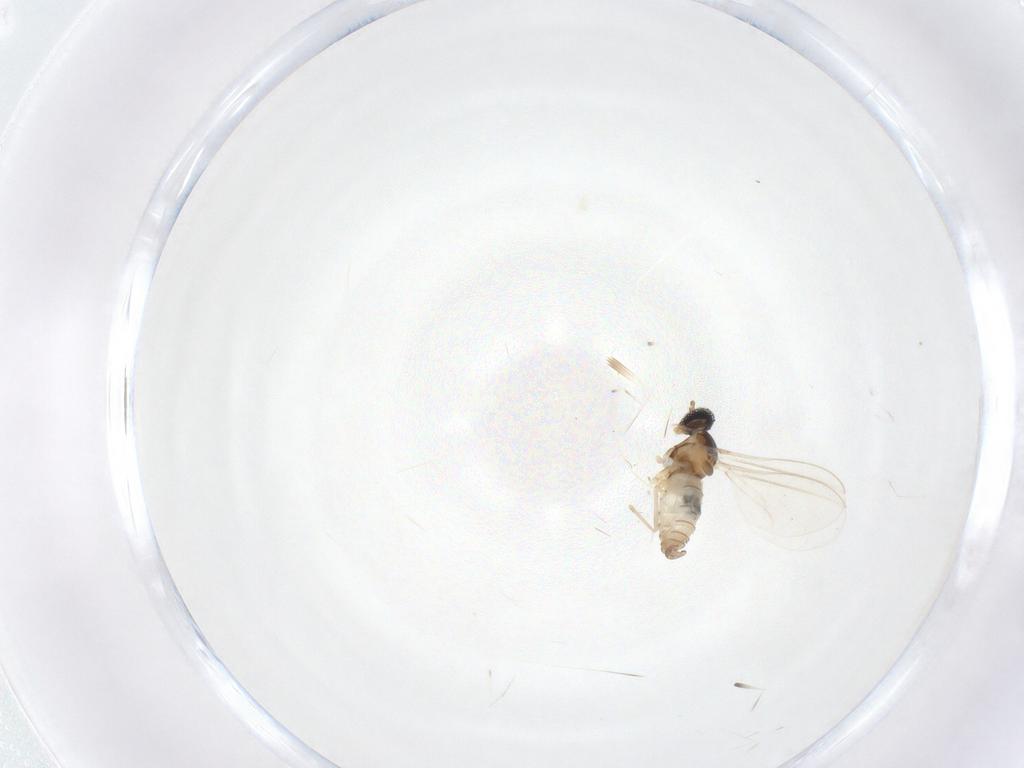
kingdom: Animalia
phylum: Arthropoda
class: Insecta
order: Diptera
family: Cecidomyiidae
